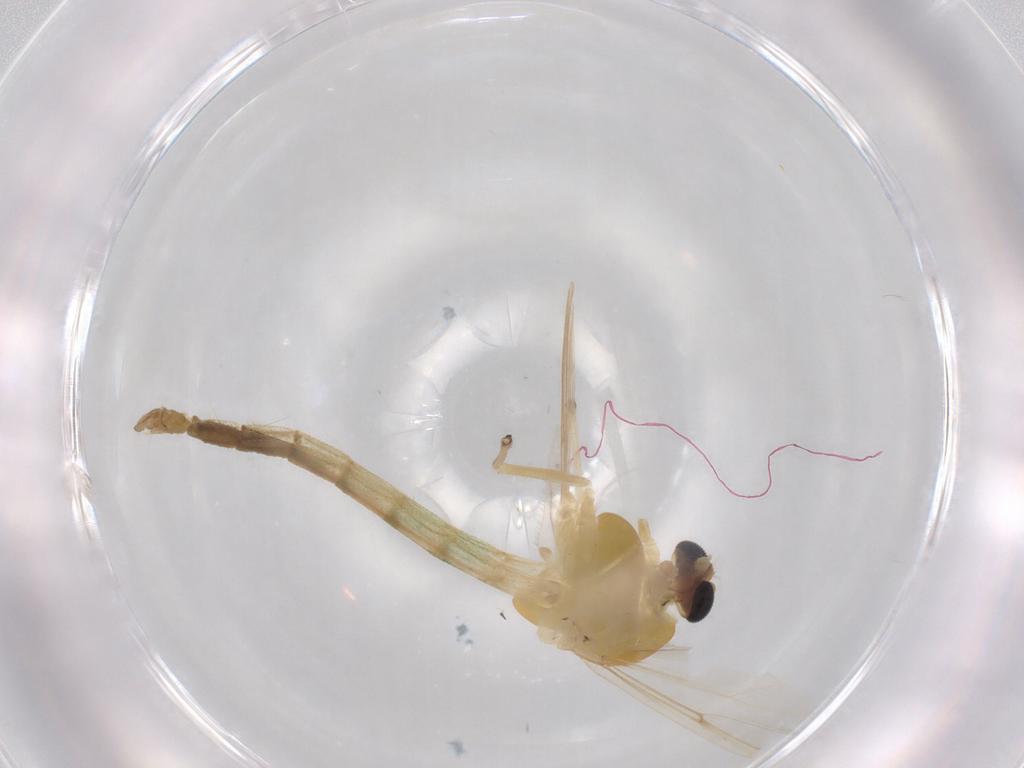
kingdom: Animalia
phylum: Arthropoda
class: Insecta
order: Diptera
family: Chironomidae
